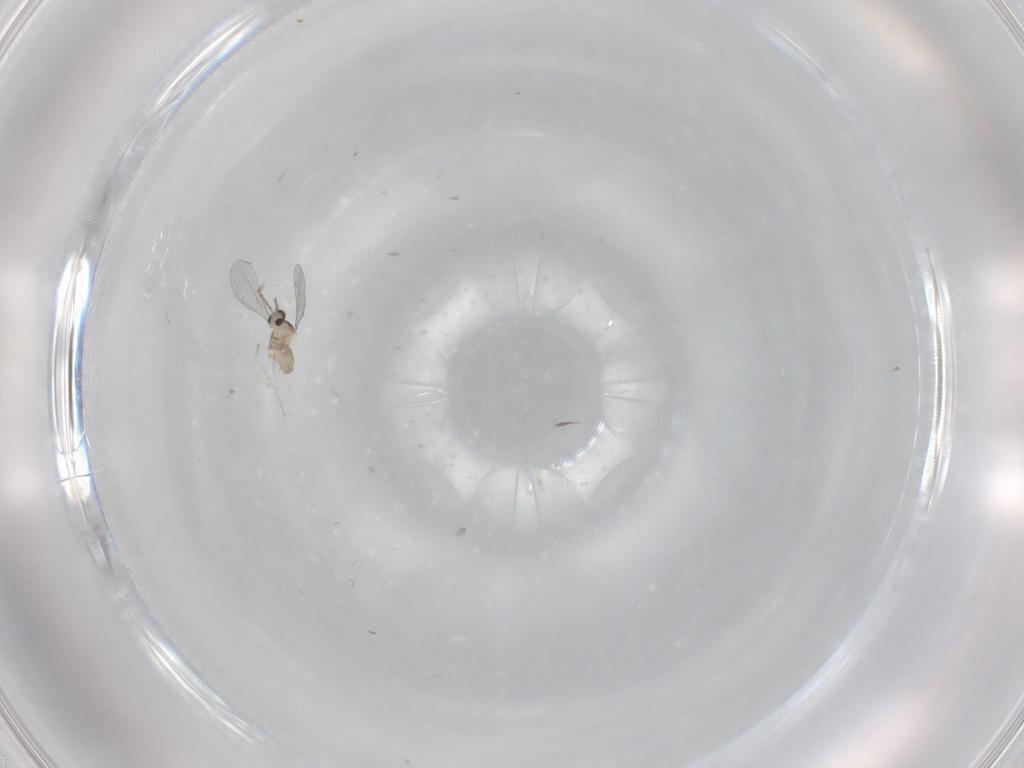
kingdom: Animalia
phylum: Arthropoda
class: Insecta
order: Diptera
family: Cecidomyiidae
